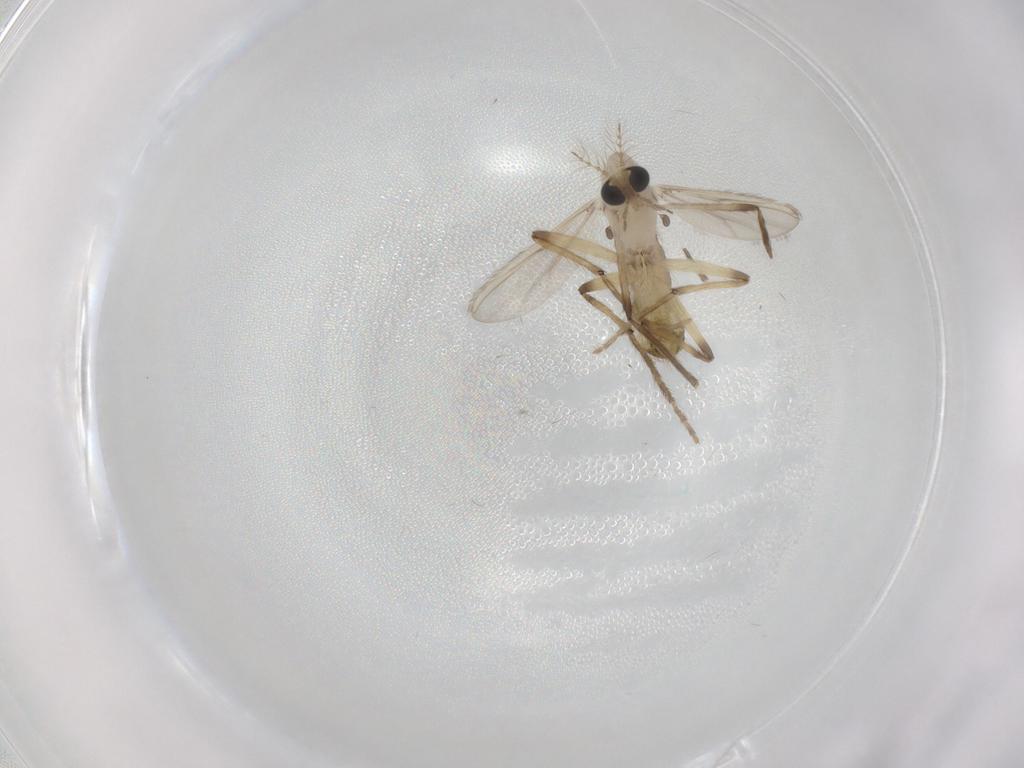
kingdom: Animalia
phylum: Arthropoda
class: Insecta
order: Diptera
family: Chironomidae
